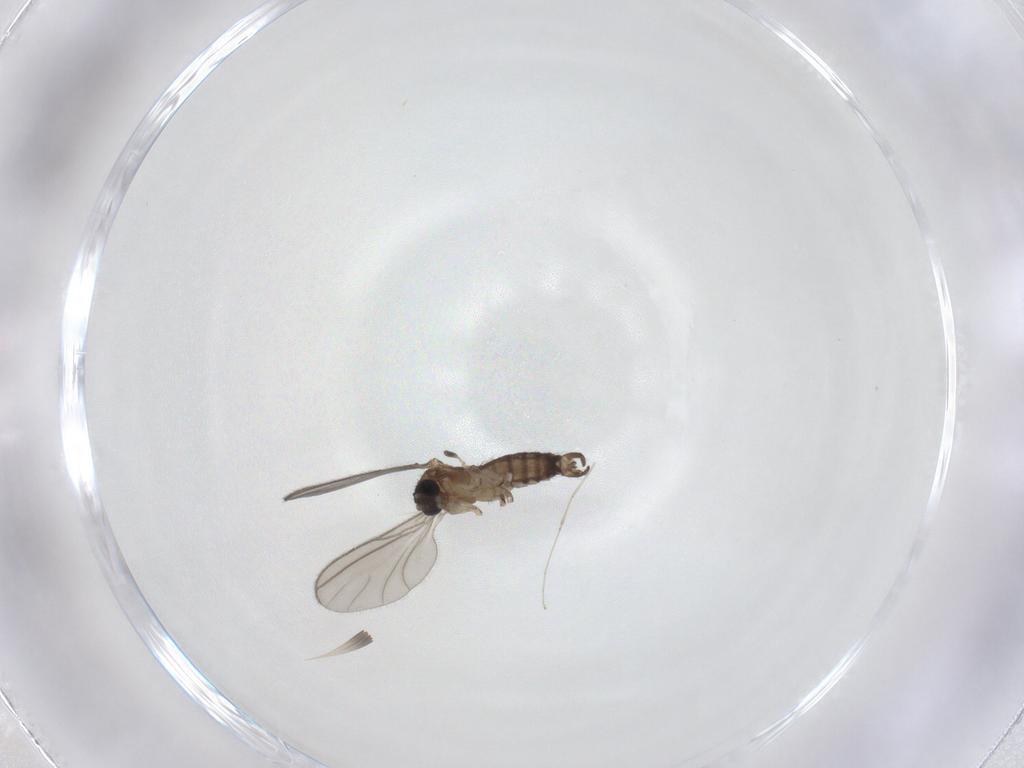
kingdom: Animalia
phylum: Arthropoda
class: Insecta
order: Diptera
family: Sciaridae
